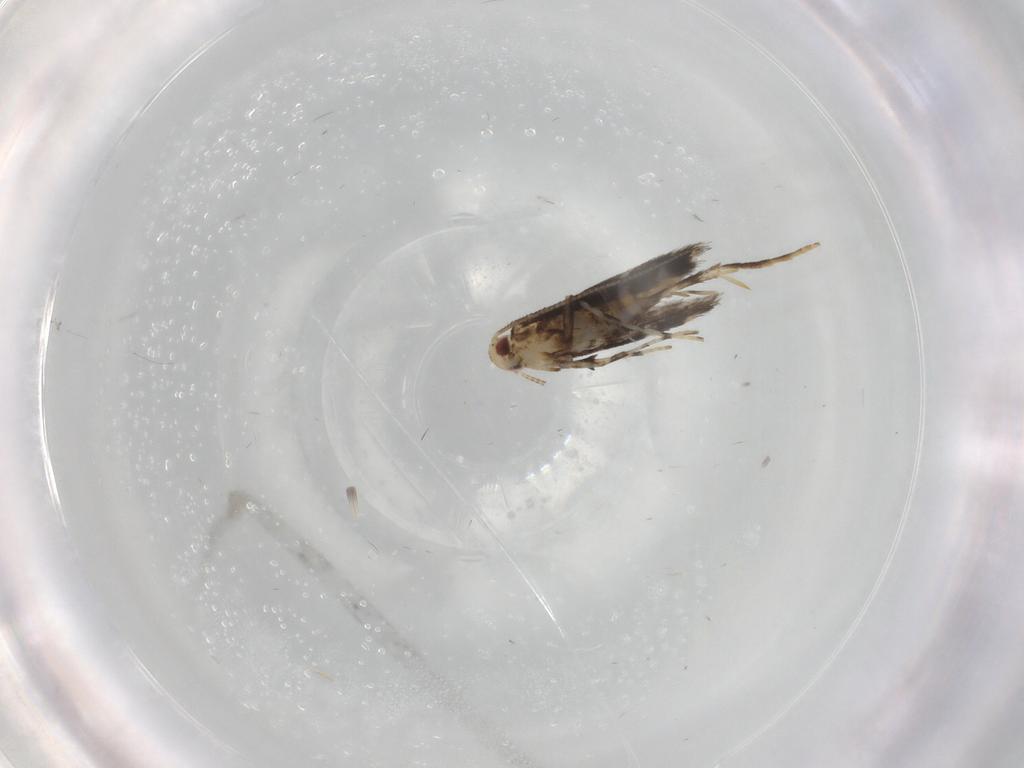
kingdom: Animalia
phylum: Arthropoda
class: Insecta
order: Lepidoptera
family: Gracillariidae
